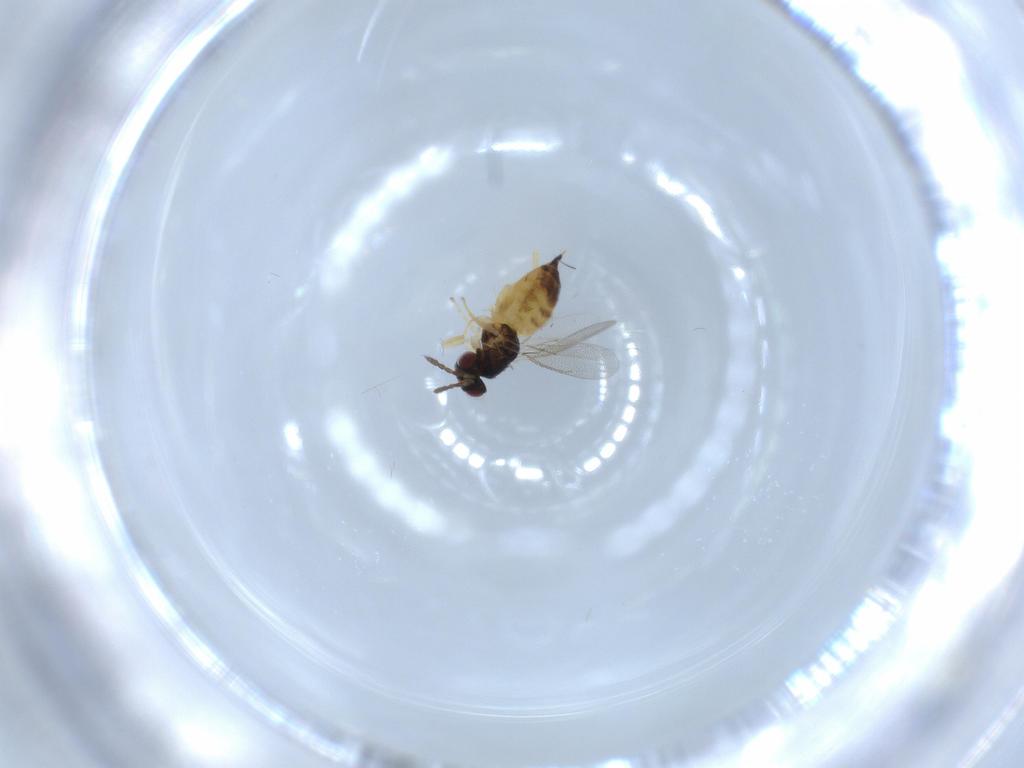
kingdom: Animalia
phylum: Arthropoda
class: Insecta
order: Hymenoptera
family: Eulophidae
